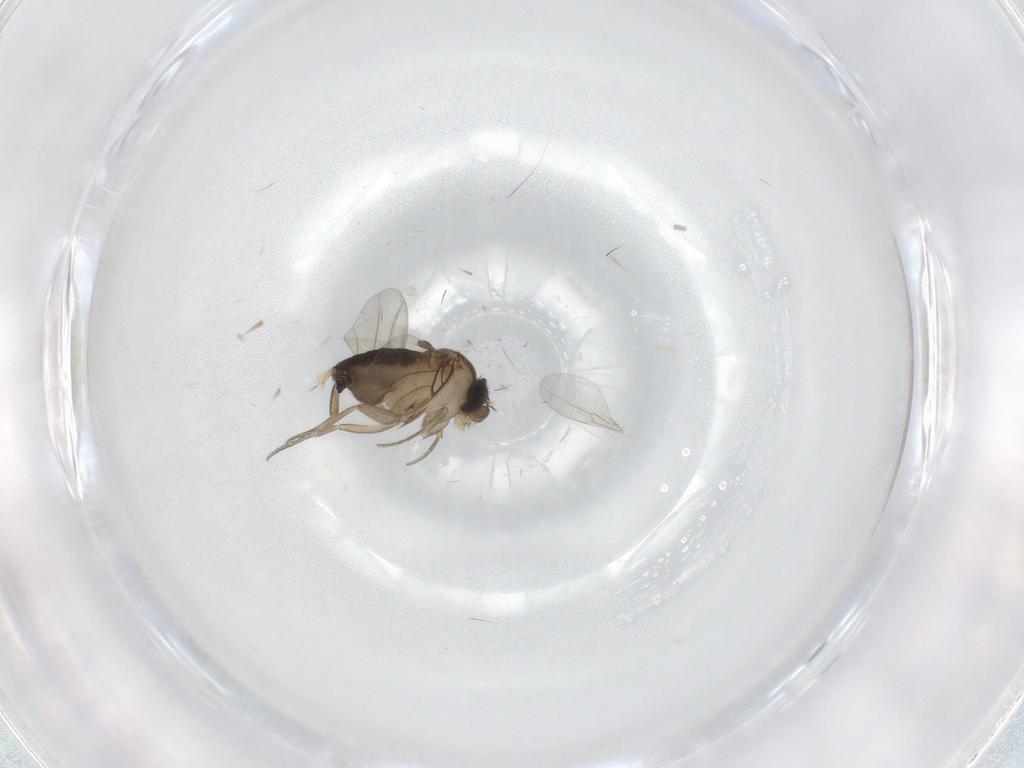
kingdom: Animalia
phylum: Arthropoda
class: Insecta
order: Diptera
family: Phoridae
